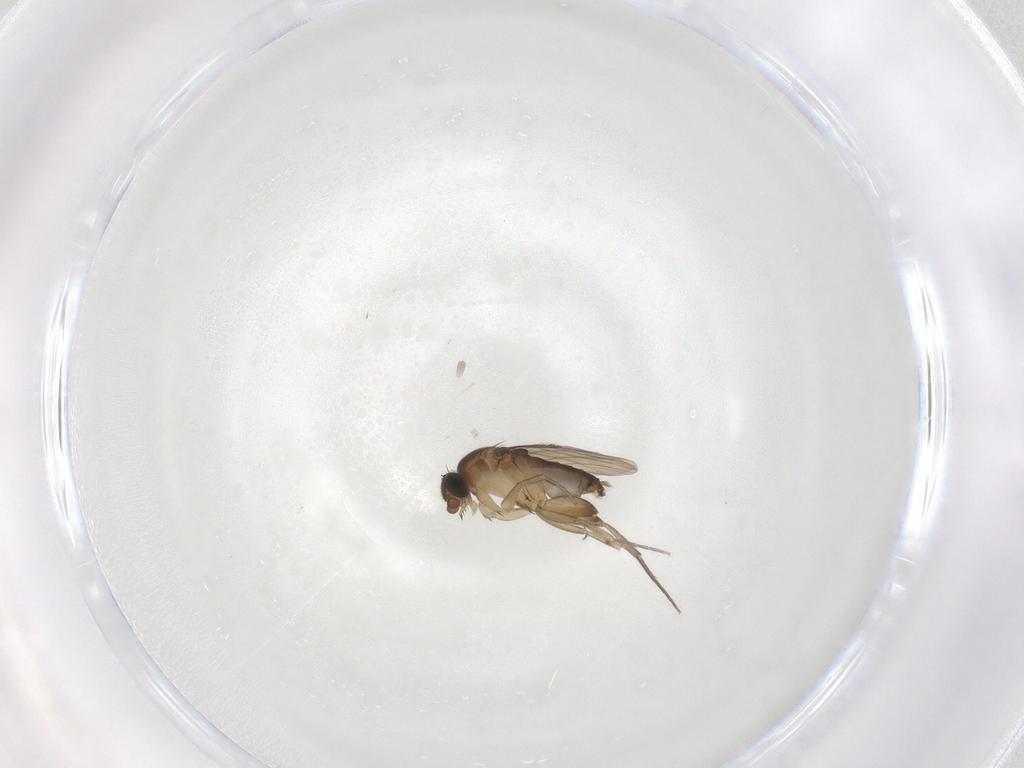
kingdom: Animalia
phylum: Arthropoda
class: Insecta
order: Diptera
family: Phoridae
